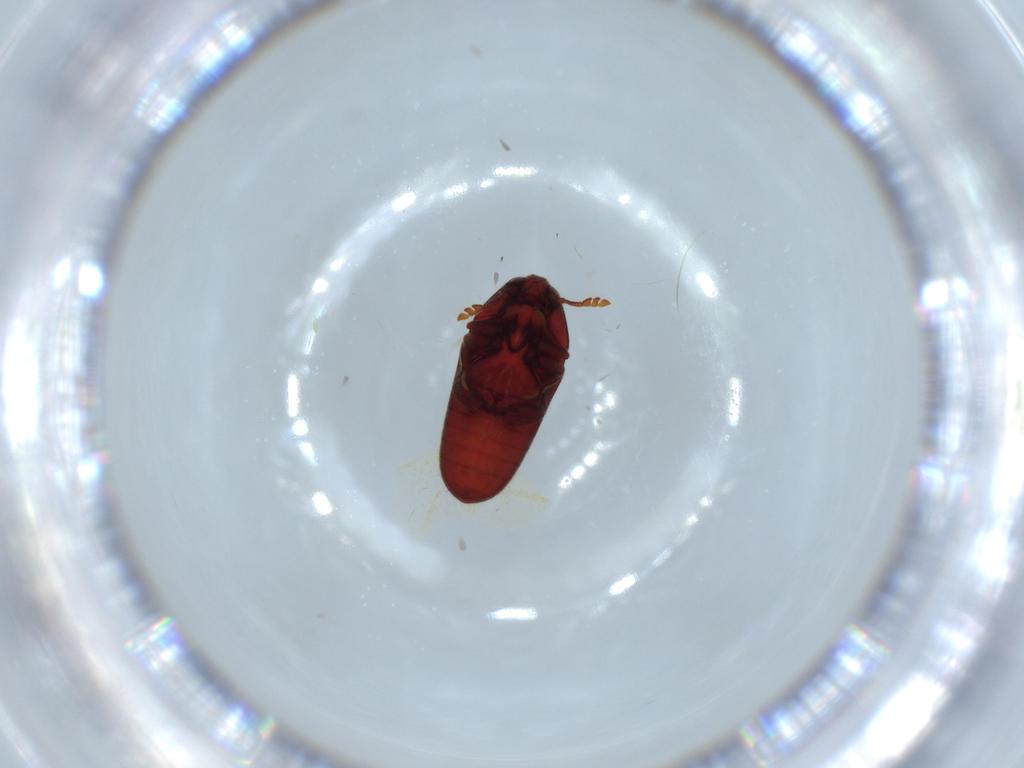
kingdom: Animalia
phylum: Arthropoda
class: Insecta
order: Coleoptera
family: Throscidae
